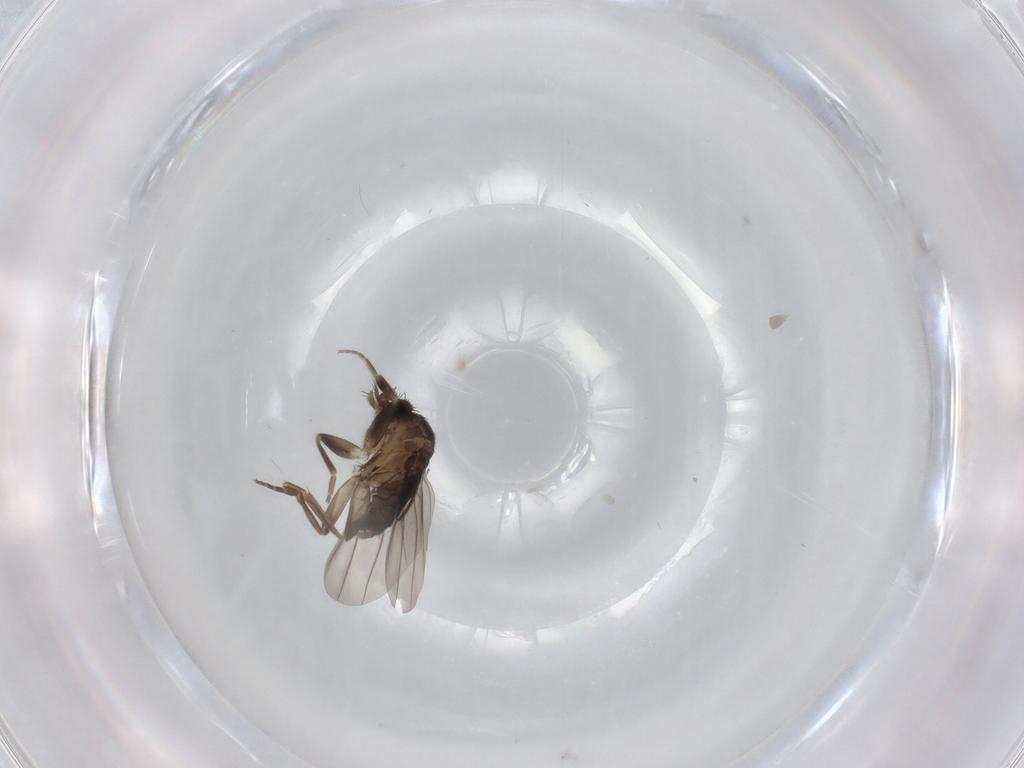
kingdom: Animalia
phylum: Arthropoda
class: Insecta
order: Diptera
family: Cecidomyiidae
